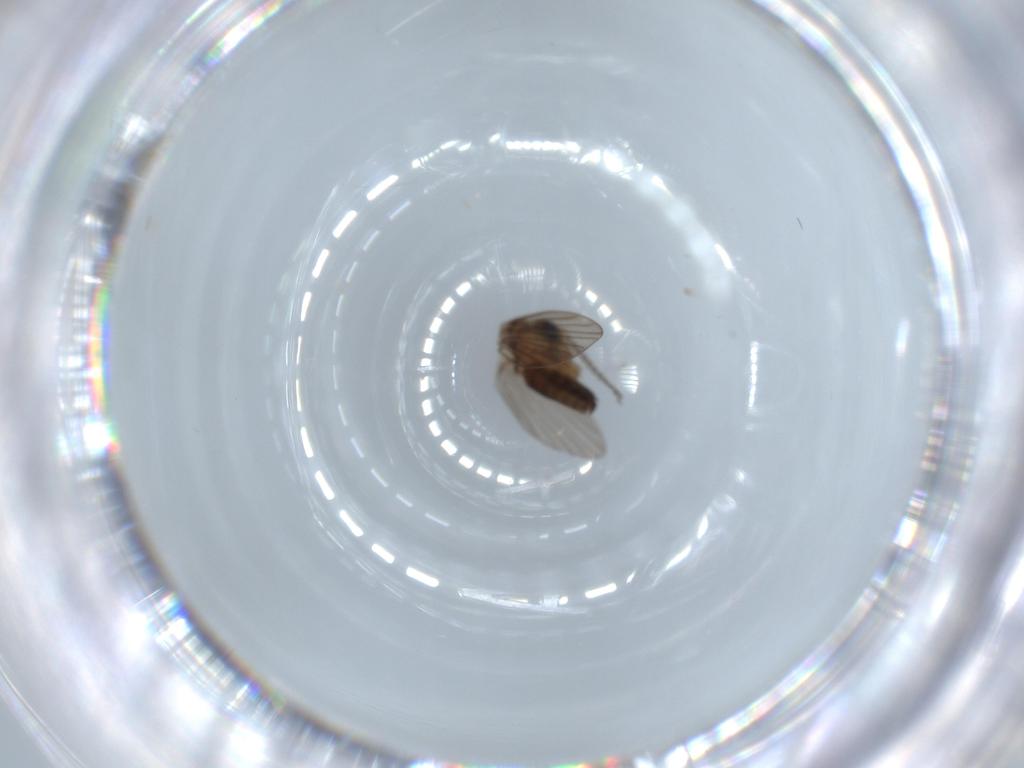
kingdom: Animalia
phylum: Arthropoda
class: Insecta
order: Diptera
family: Psychodidae
